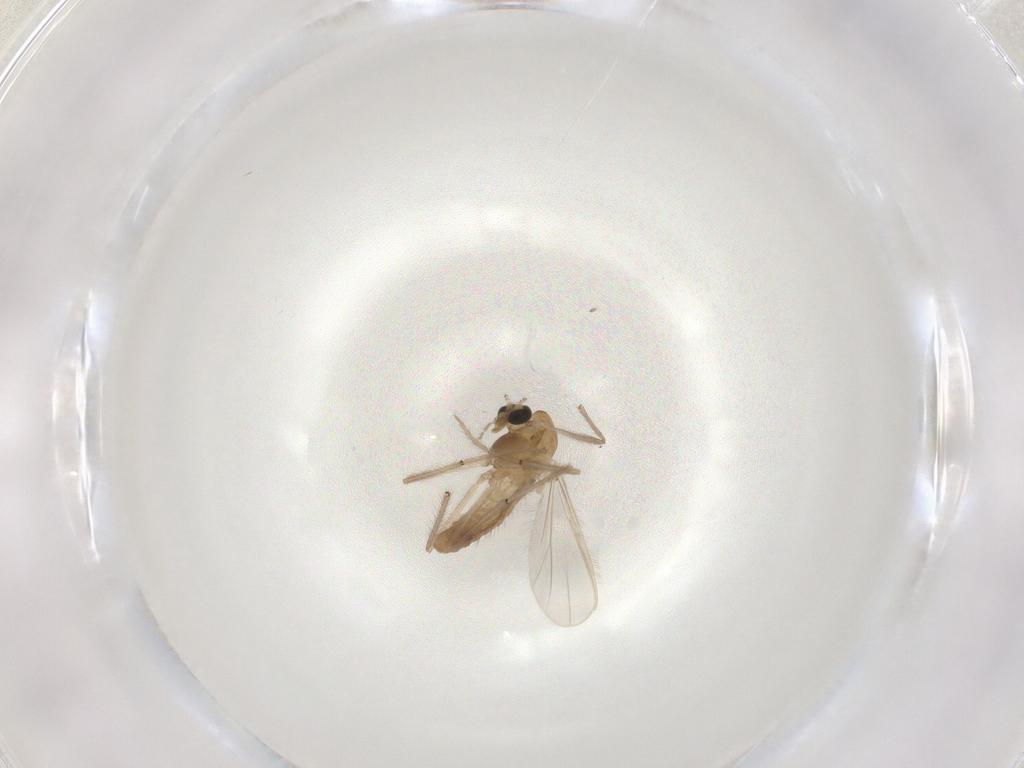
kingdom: Animalia
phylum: Arthropoda
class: Insecta
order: Diptera
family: Chironomidae
